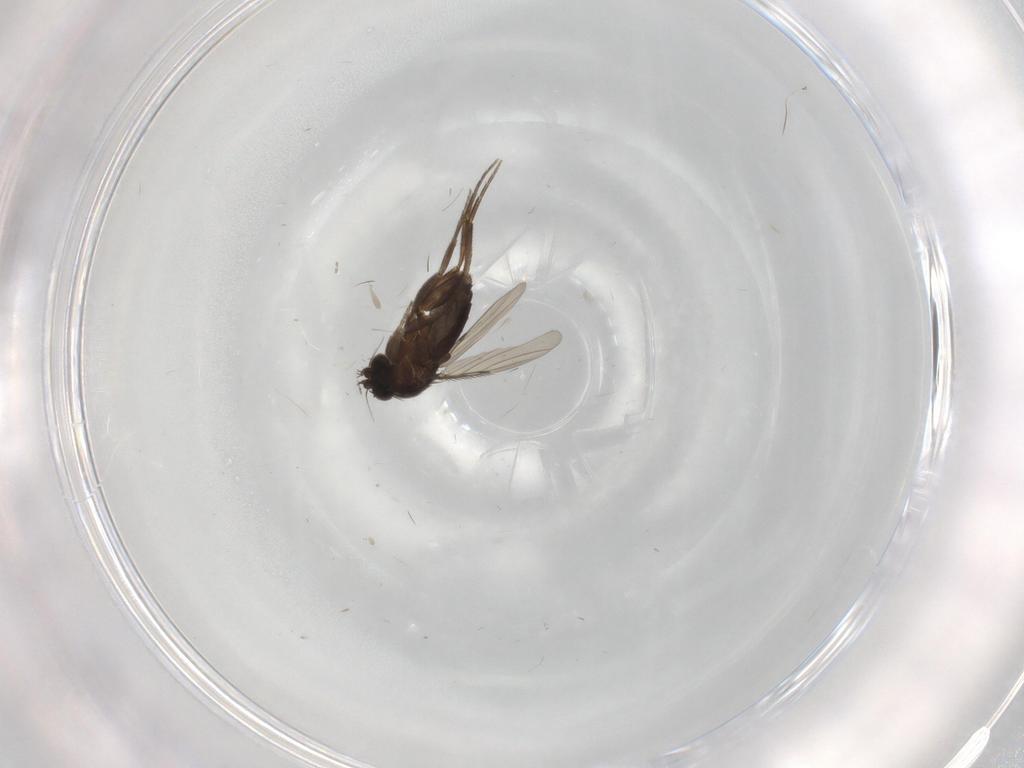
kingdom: Animalia
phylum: Arthropoda
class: Insecta
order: Diptera
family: Phoridae
